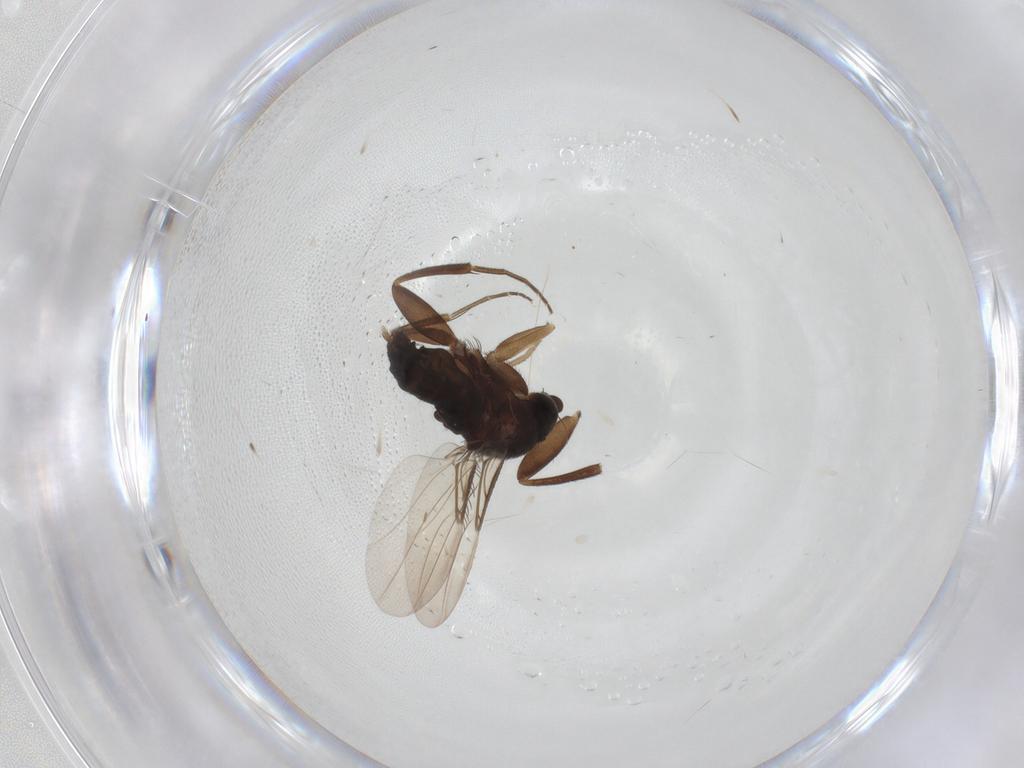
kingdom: Animalia
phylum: Arthropoda
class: Insecta
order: Diptera
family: Phoridae
